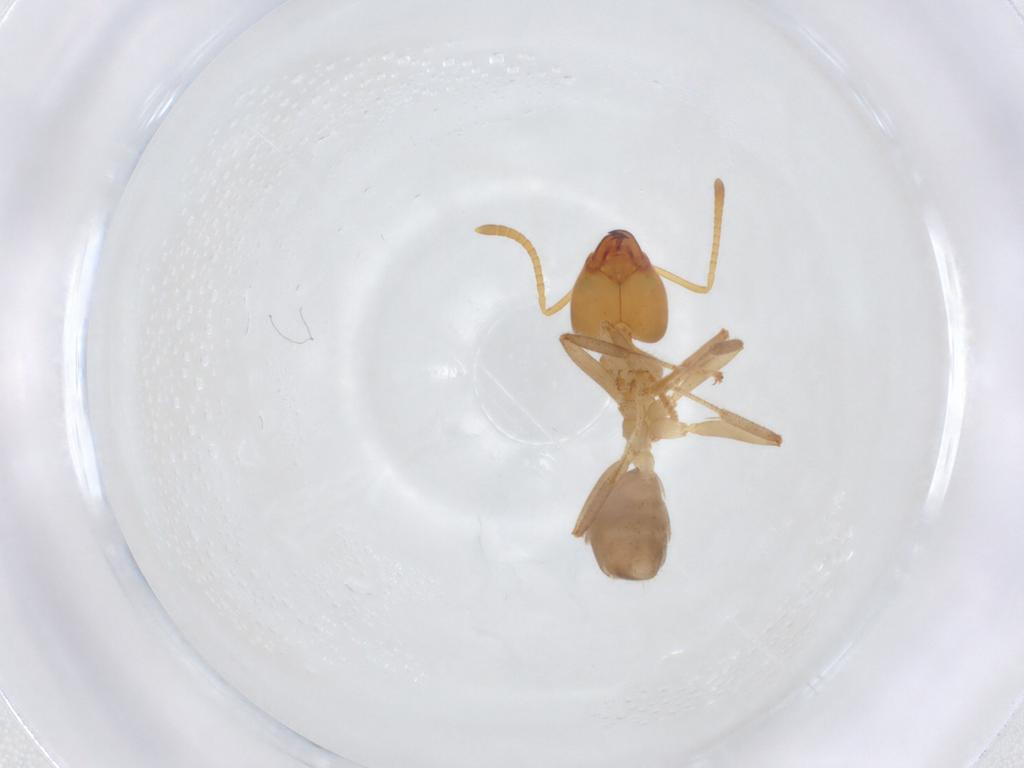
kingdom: Animalia
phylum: Arthropoda
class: Insecta
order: Hymenoptera
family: Formicidae
